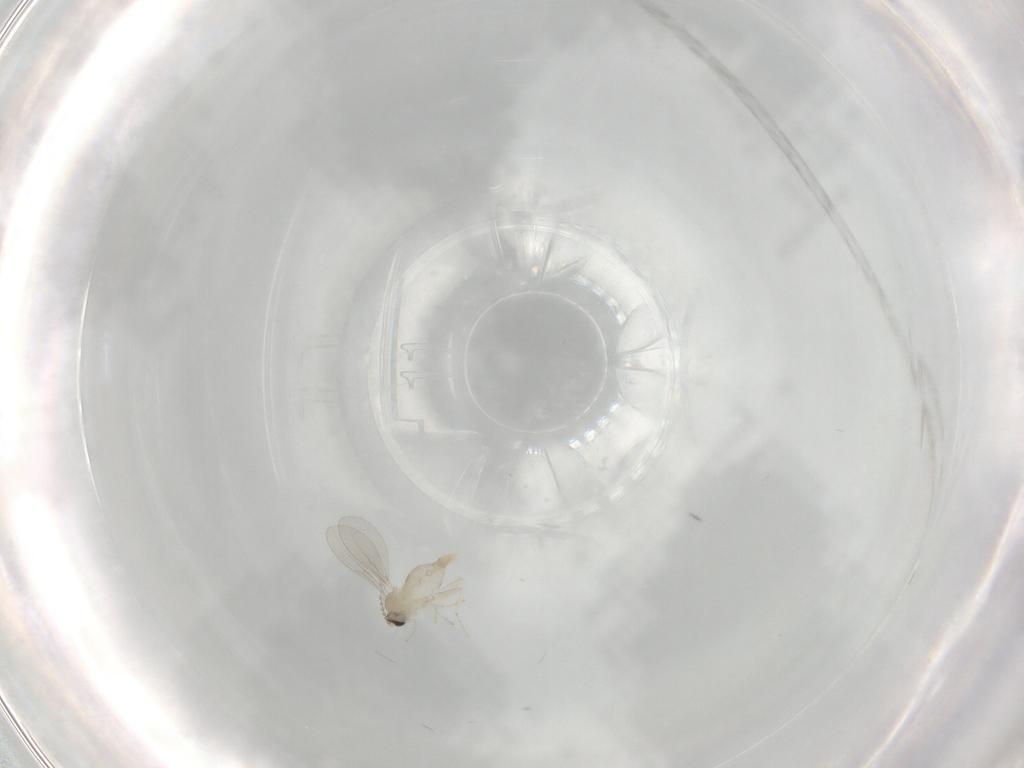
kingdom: Animalia
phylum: Arthropoda
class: Insecta
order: Diptera
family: Cecidomyiidae
